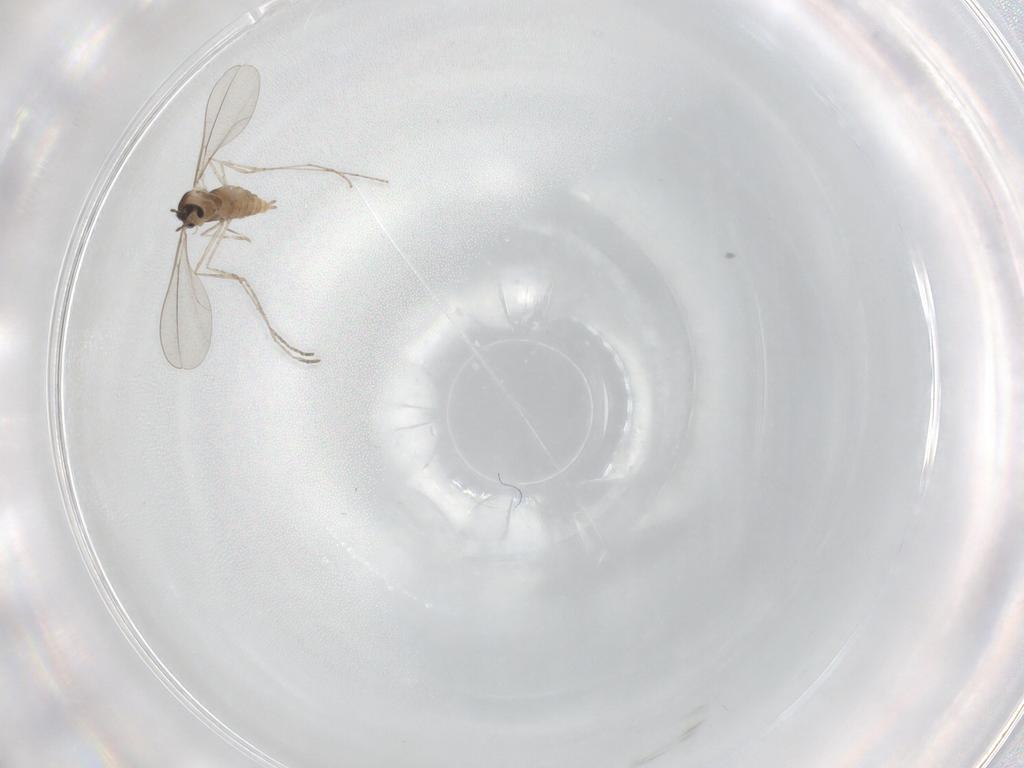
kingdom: Animalia
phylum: Arthropoda
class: Insecta
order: Diptera
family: Cecidomyiidae
